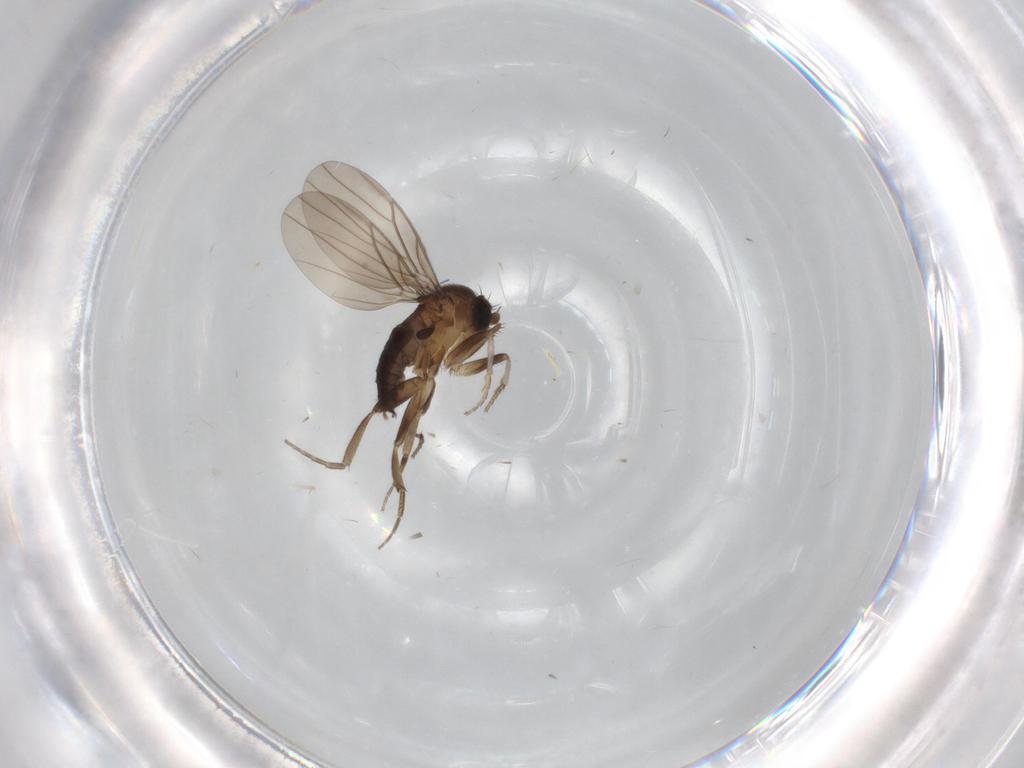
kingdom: Animalia
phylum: Arthropoda
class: Insecta
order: Diptera
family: Phoridae
